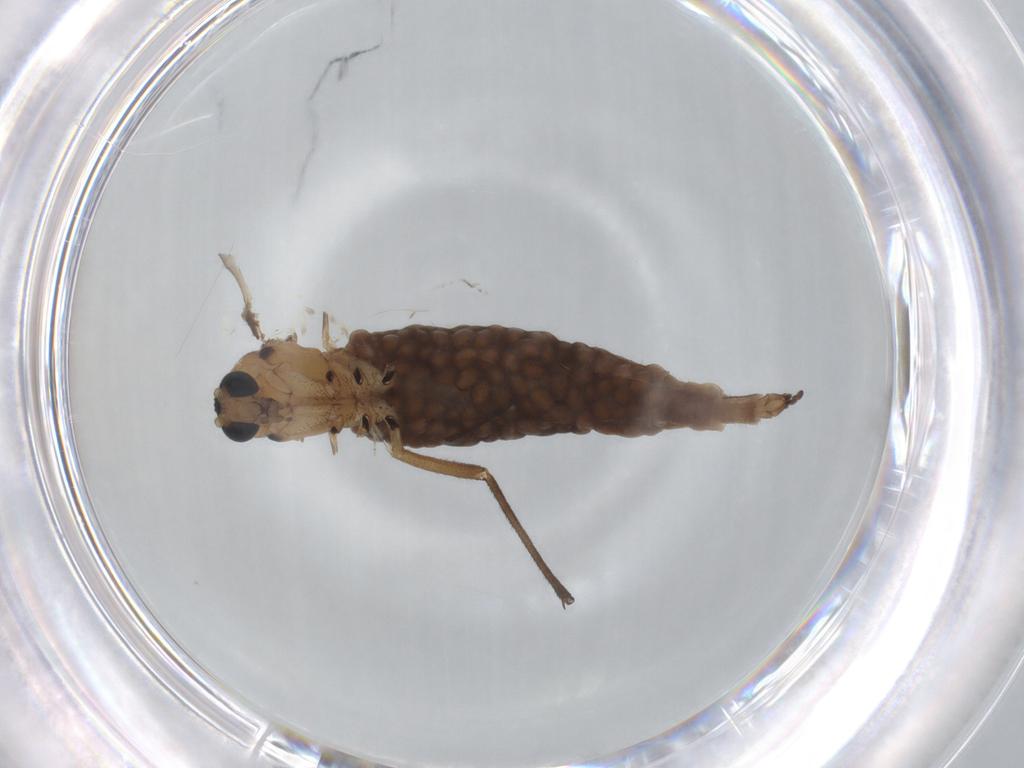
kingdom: Animalia
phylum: Arthropoda
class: Insecta
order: Diptera
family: Sciaridae
